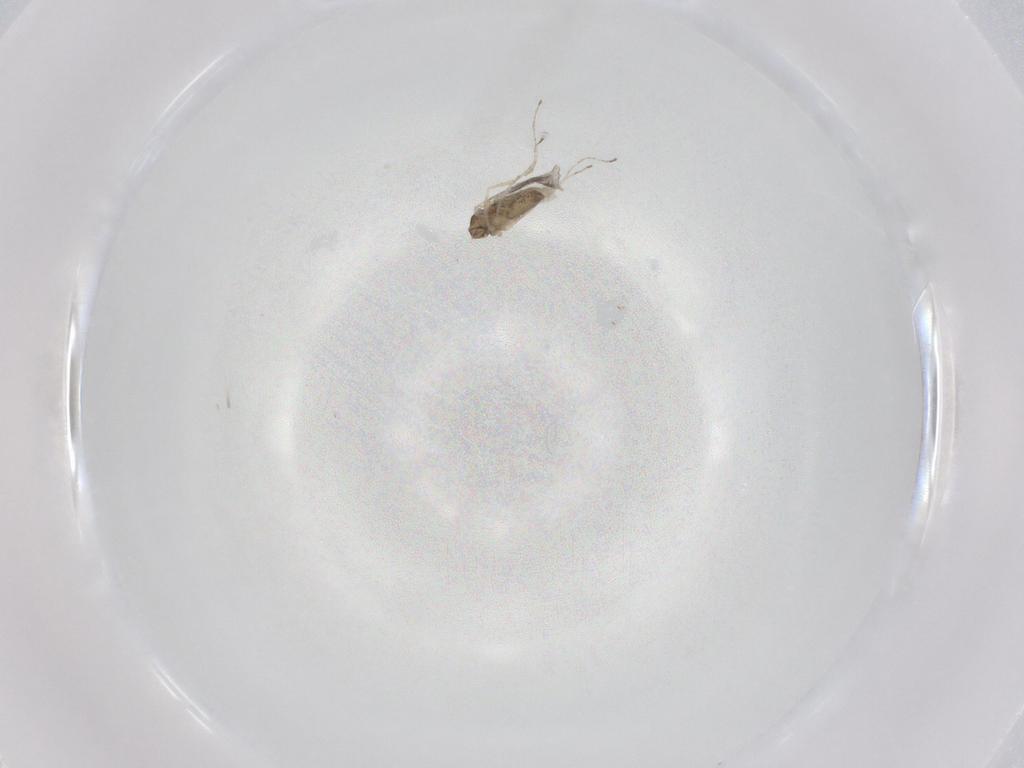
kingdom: Animalia
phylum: Arthropoda
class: Insecta
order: Diptera
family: Cecidomyiidae
